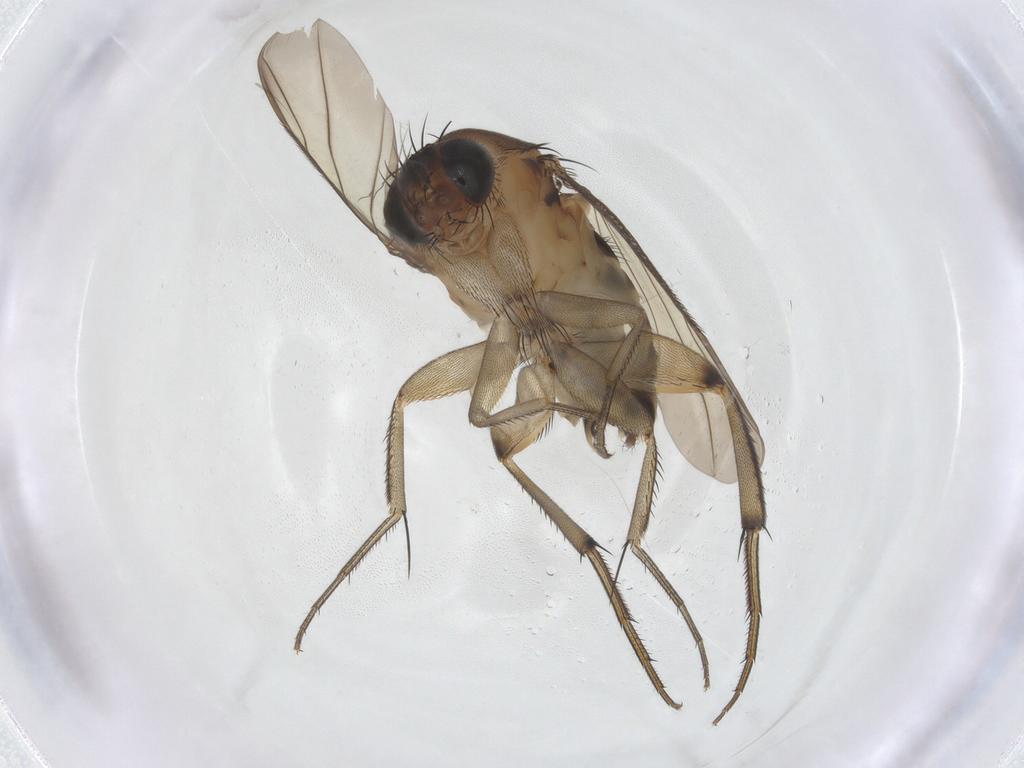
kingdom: Animalia
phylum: Arthropoda
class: Insecta
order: Diptera
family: Phoridae
